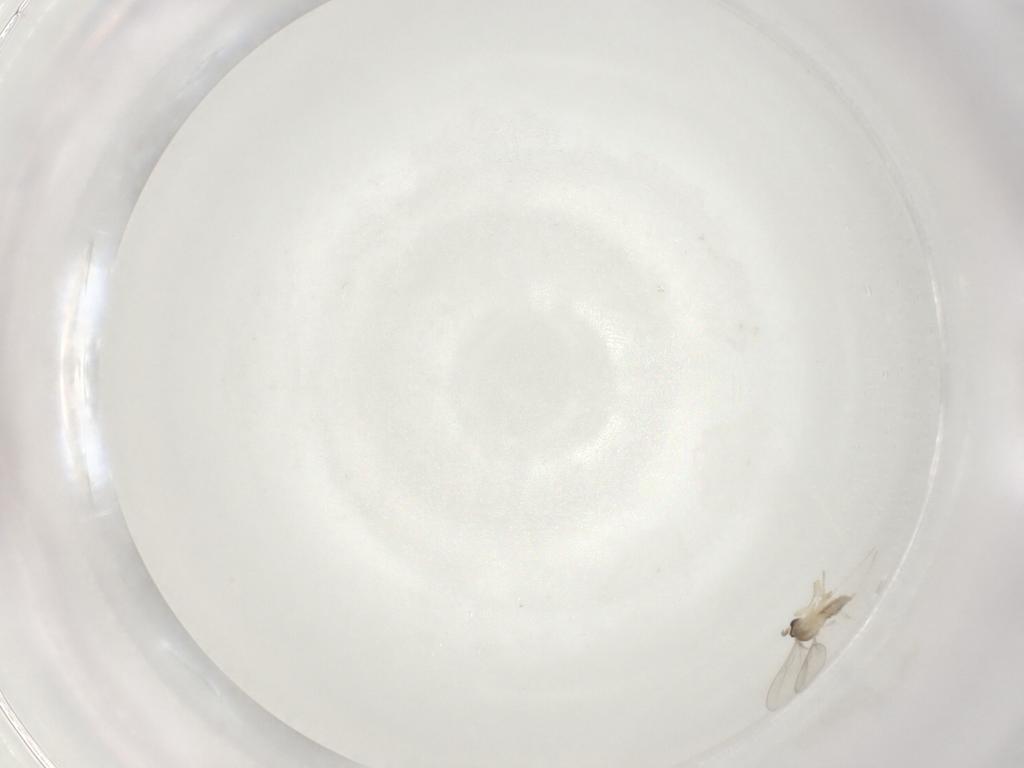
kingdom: Animalia
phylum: Arthropoda
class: Insecta
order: Diptera
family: Cecidomyiidae
